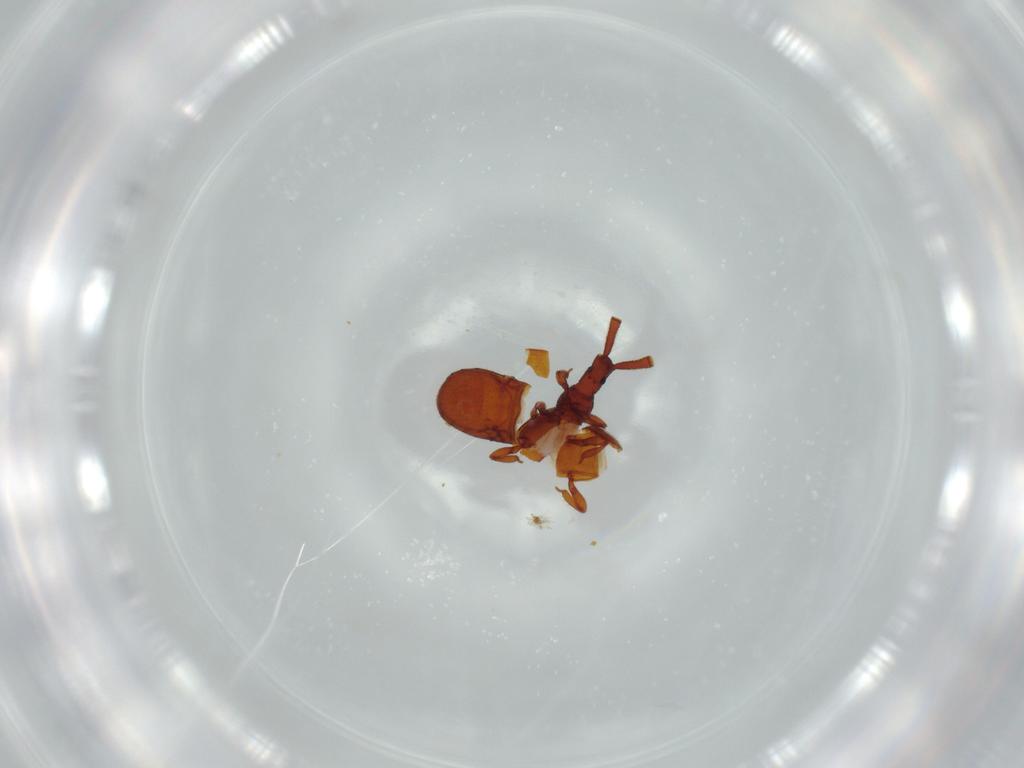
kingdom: Animalia
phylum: Arthropoda
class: Insecta
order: Coleoptera
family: Staphylinidae
